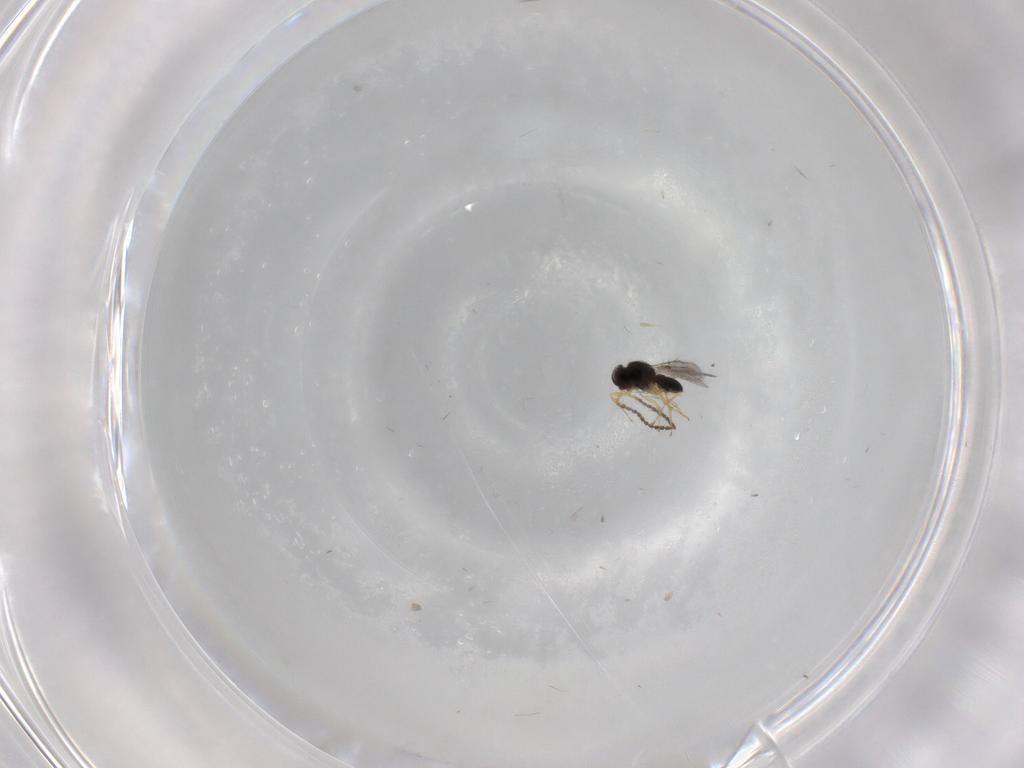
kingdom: Animalia
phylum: Arthropoda
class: Insecta
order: Hymenoptera
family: Scelionidae
